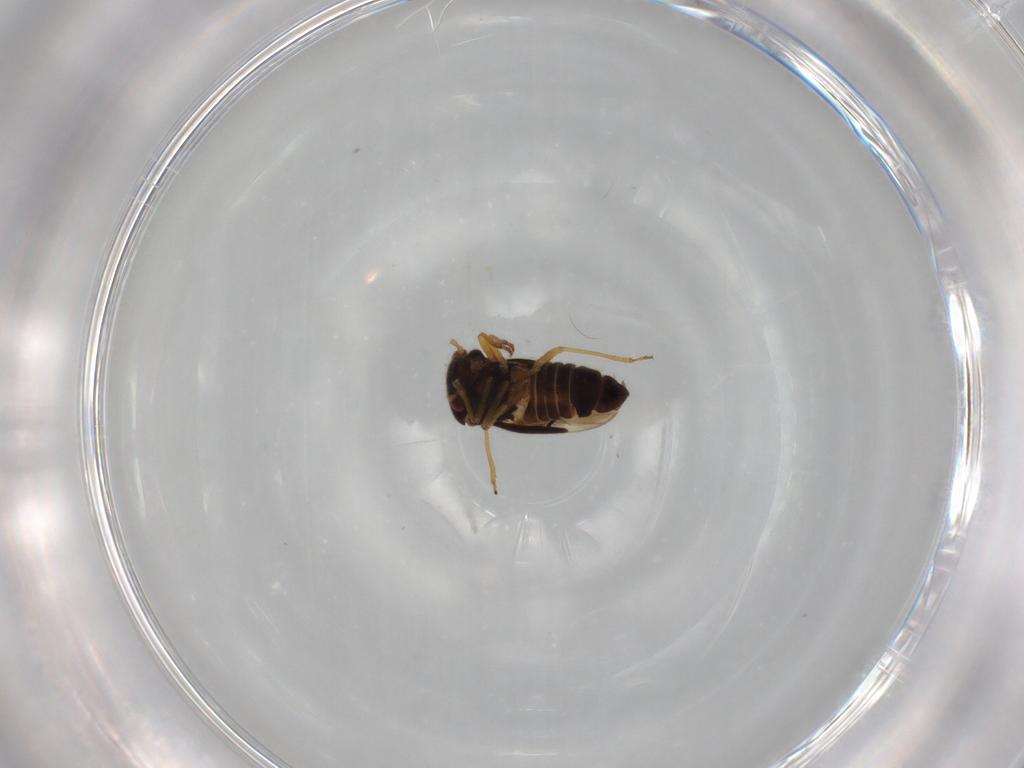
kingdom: Animalia
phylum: Arthropoda
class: Insecta
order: Hemiptera
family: Schizopteridae
